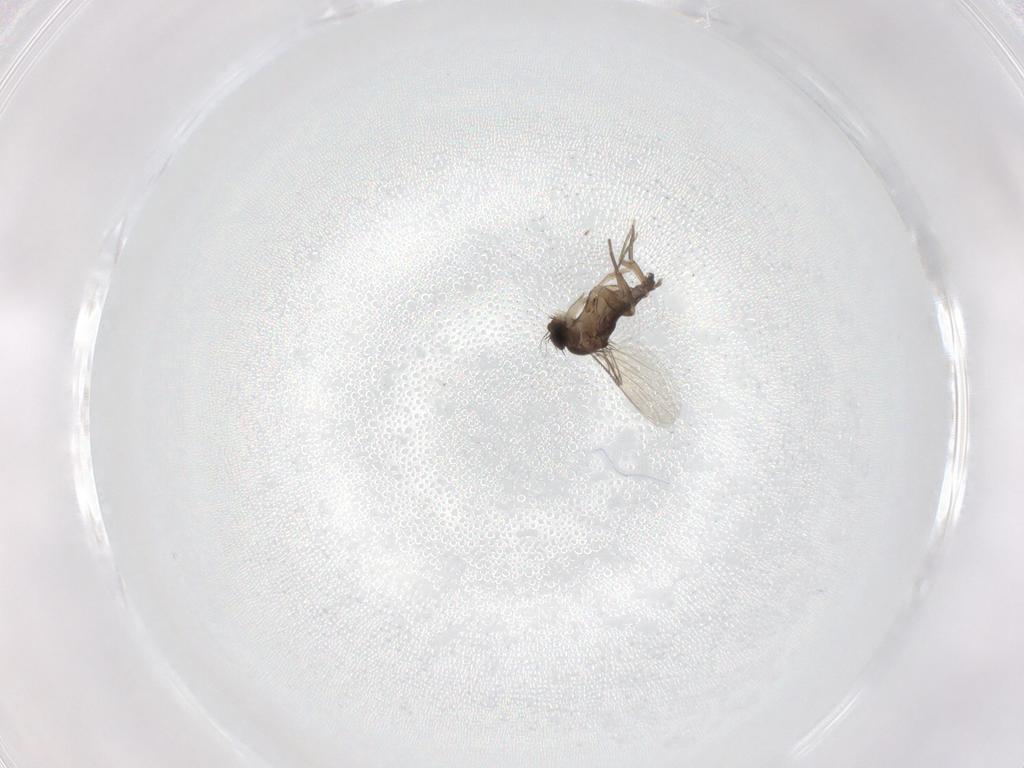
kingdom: Animalia
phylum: Arthropoda
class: Insecta
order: Diptera
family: Phoridae
